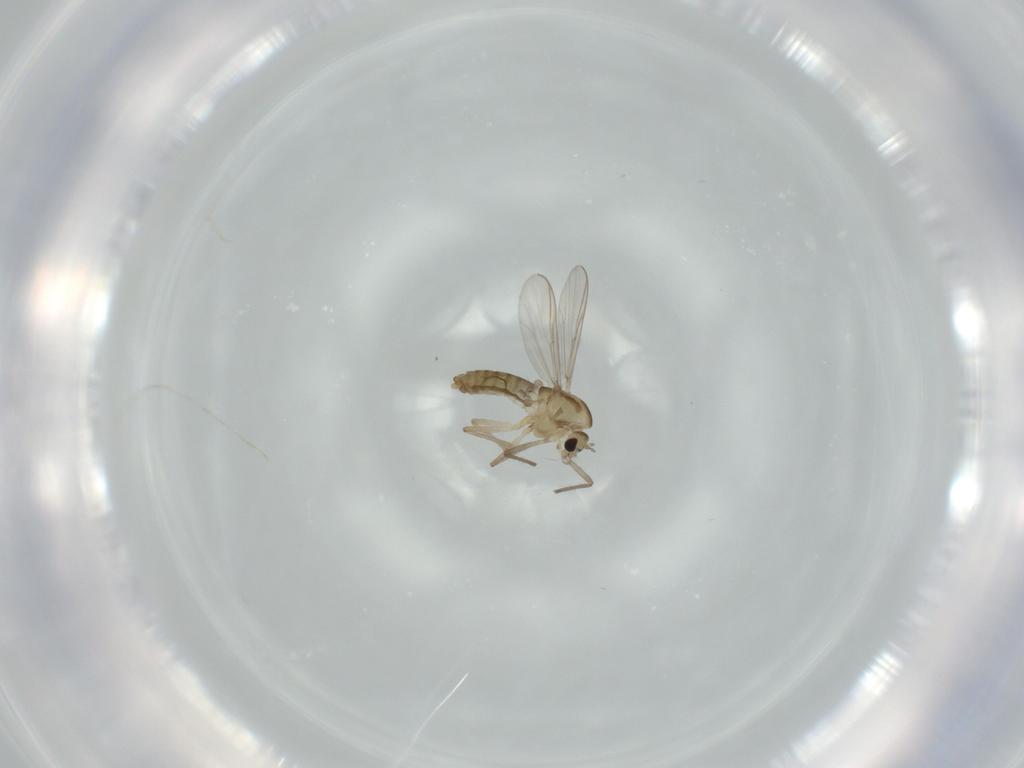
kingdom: Animalia
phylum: Arthropoda
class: Insecta
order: Diptera
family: Chironomidae
